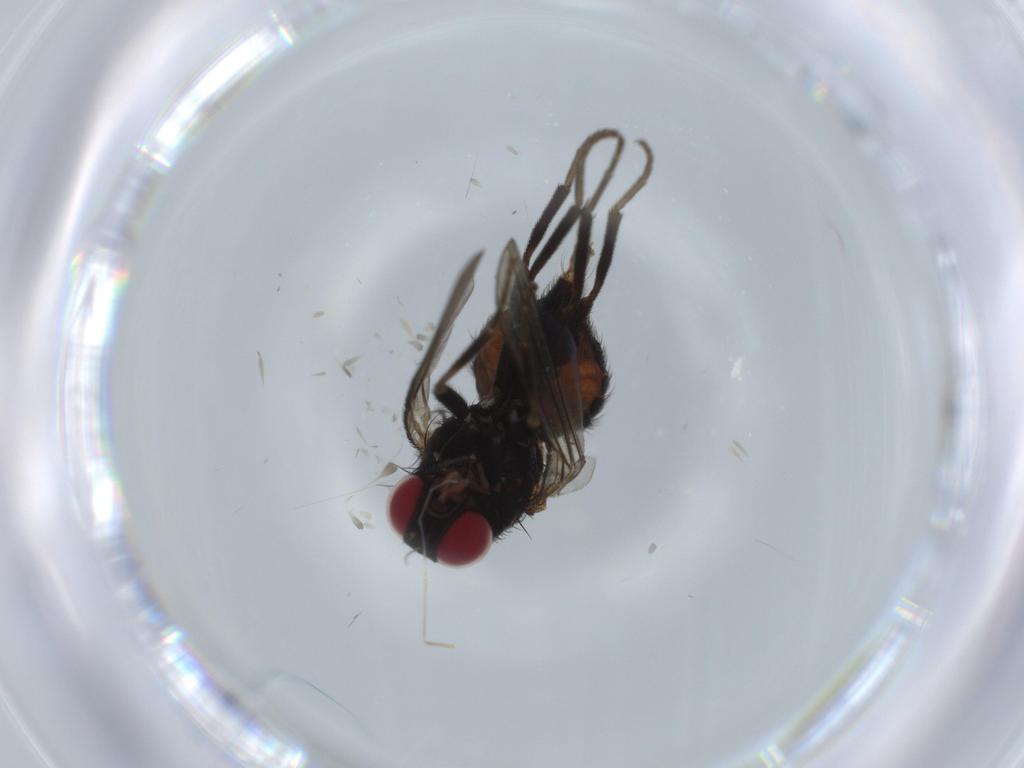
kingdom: Animalia
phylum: Arthropoda
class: Insecta
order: Diptera
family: Agromyzidae
